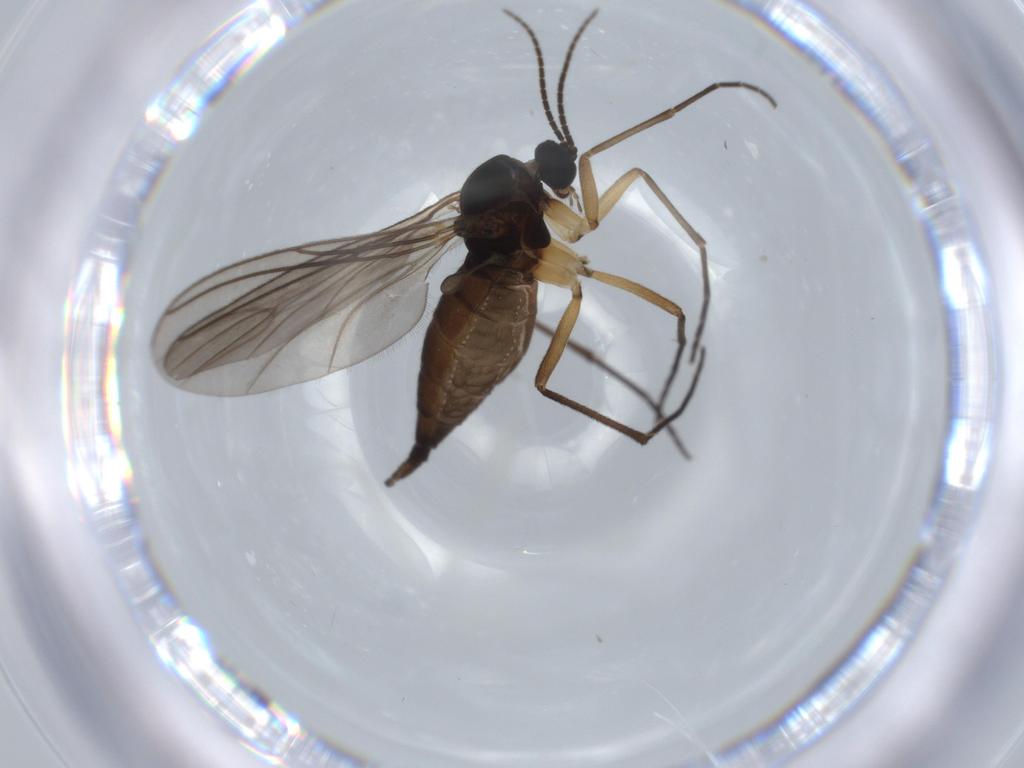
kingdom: Animalia
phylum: Arthropoda
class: Insecta
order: Diptera
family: Sciaridae
